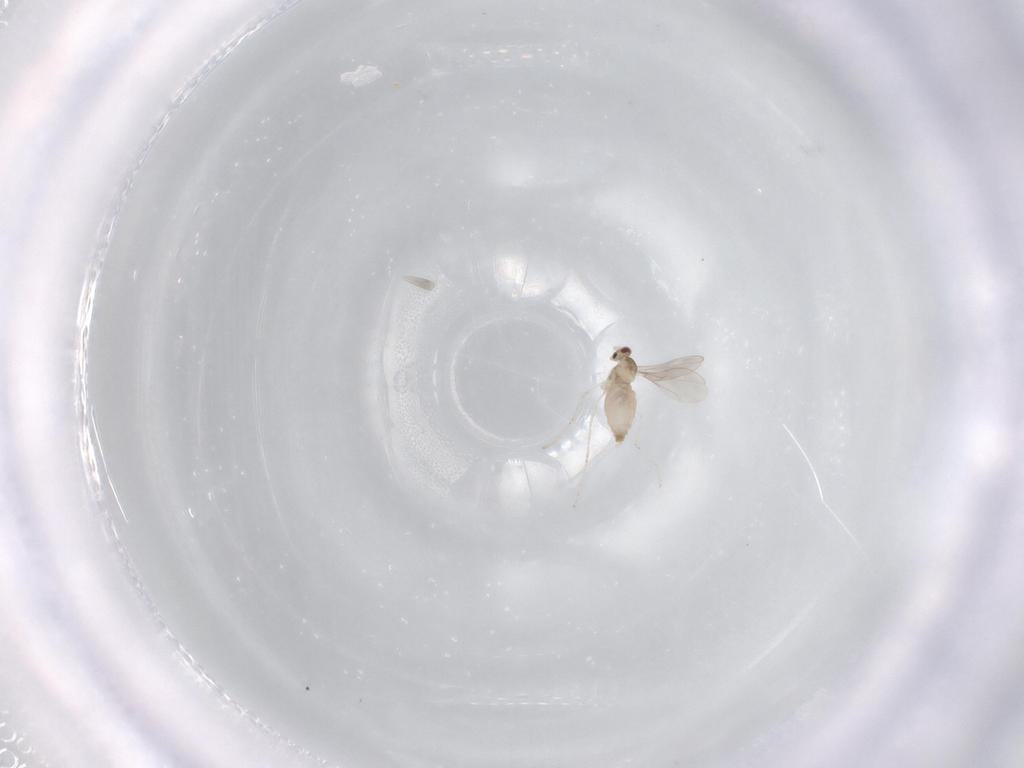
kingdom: Animalia
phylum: Arthropoda
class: Insecta
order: Diptera
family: Cecidomyiidae
